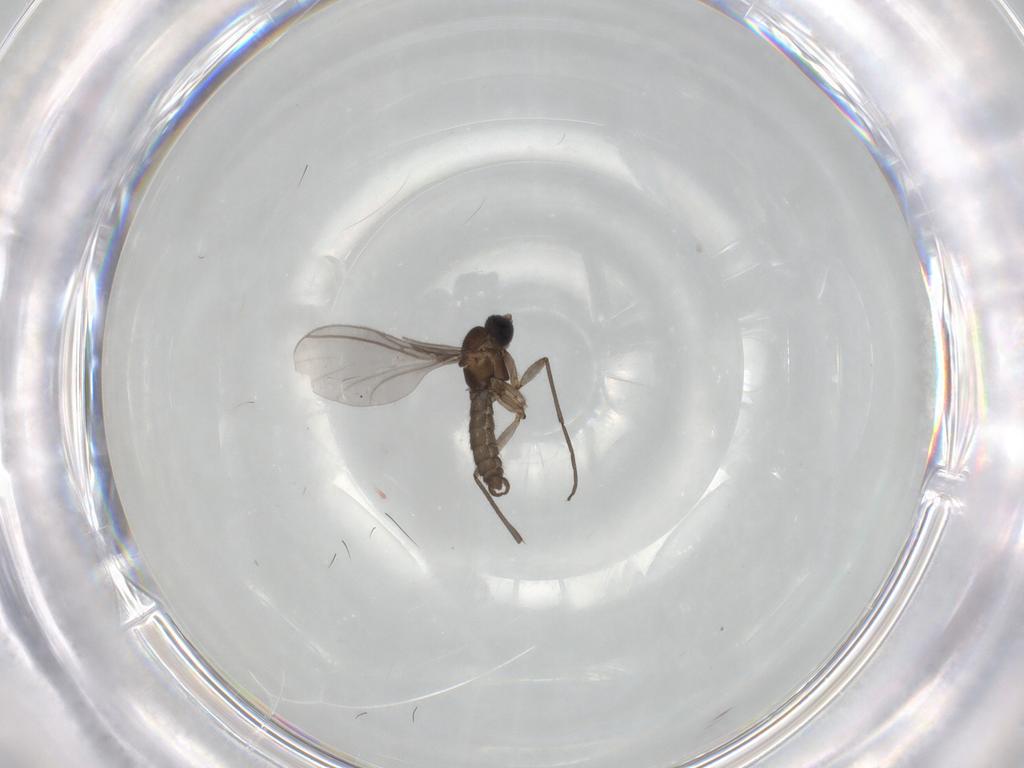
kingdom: Animalia
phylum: Arthropoda
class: Insecta
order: Diptera
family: Sciaridae
